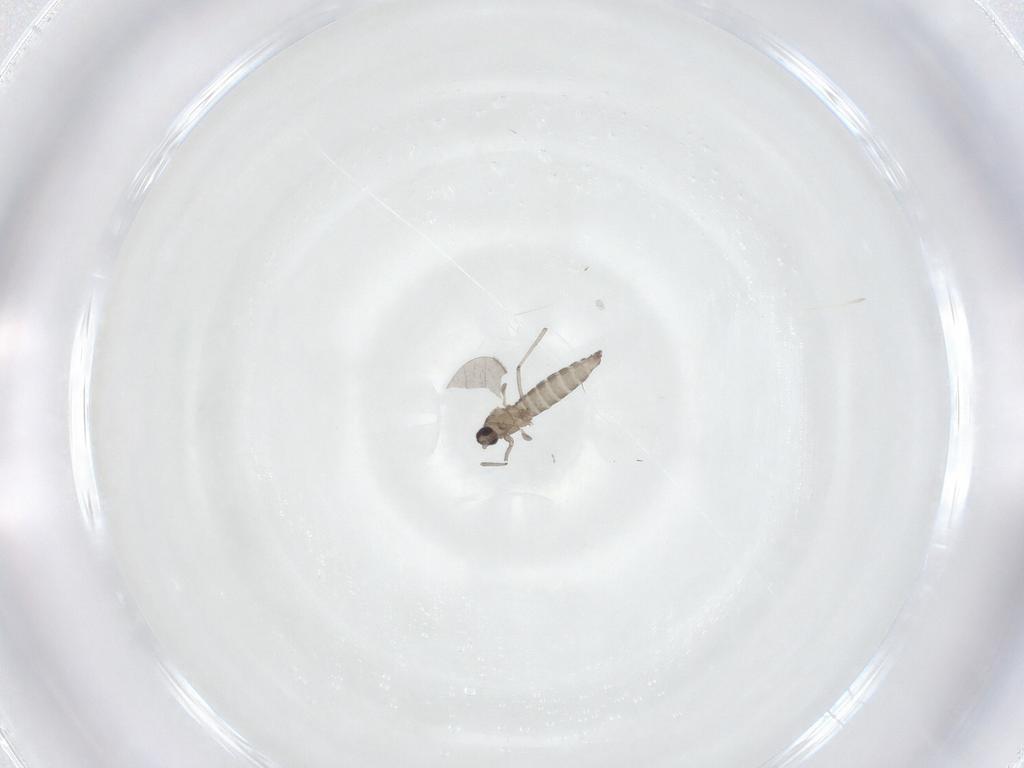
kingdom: Animalia
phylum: Arthropoda
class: Insecta
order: Diptera
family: Cecidomyiidae
